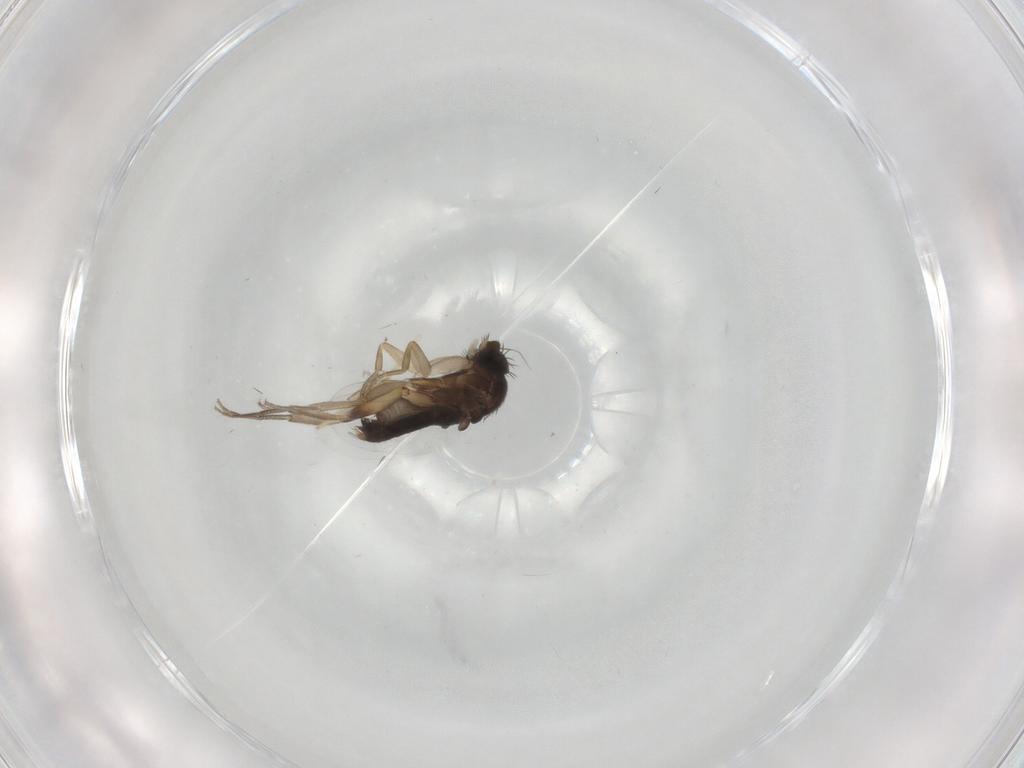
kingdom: Animalia
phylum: Arthropoda
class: Insecta
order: Diptera
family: Phoridae
